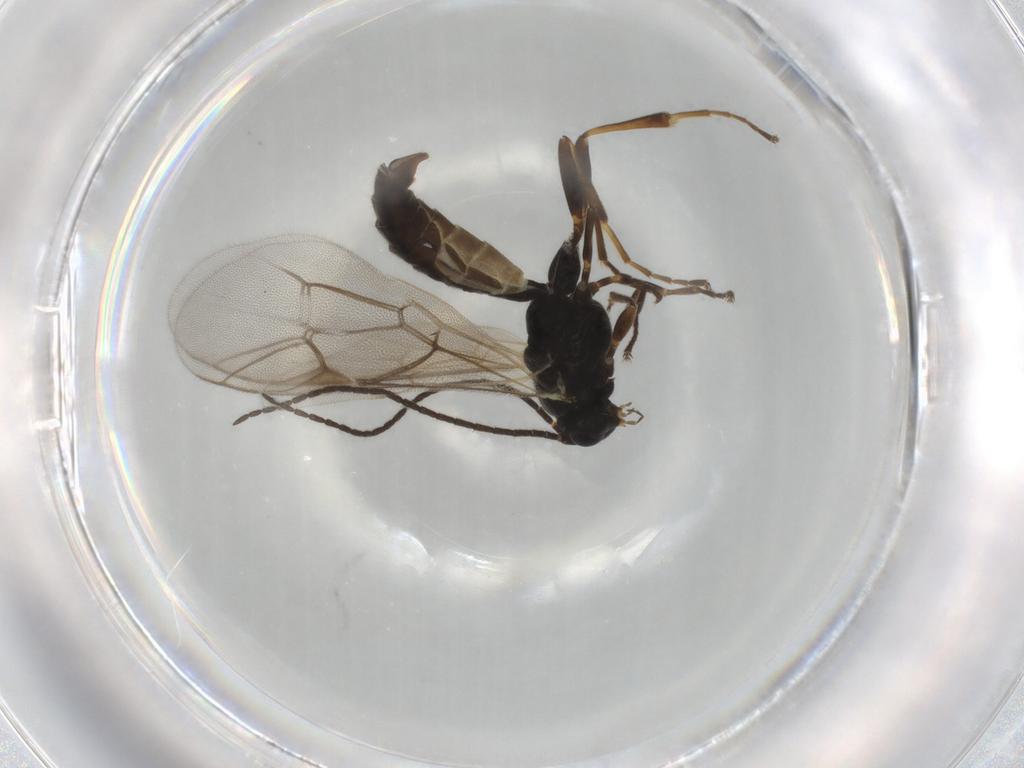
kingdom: Animalia
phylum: Arthropoda
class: Insecta
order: Hymenoptera
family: Ichneumonidae
